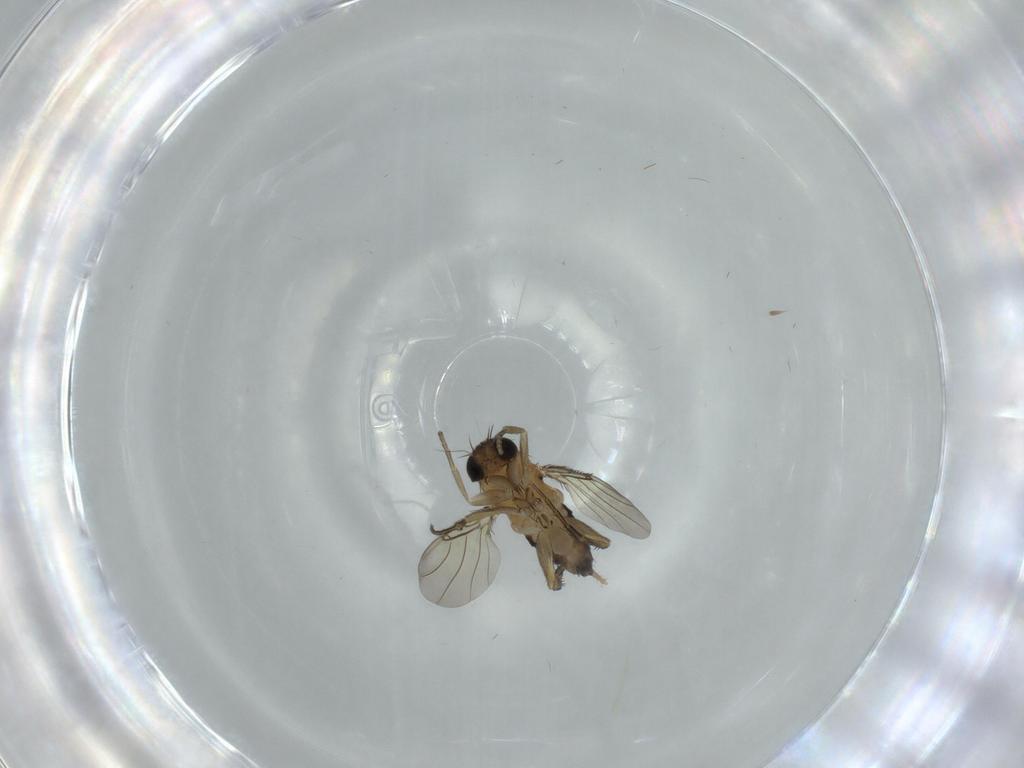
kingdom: Animalia
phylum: Arthropoda
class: Insecta
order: Diptera
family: Phoridae
